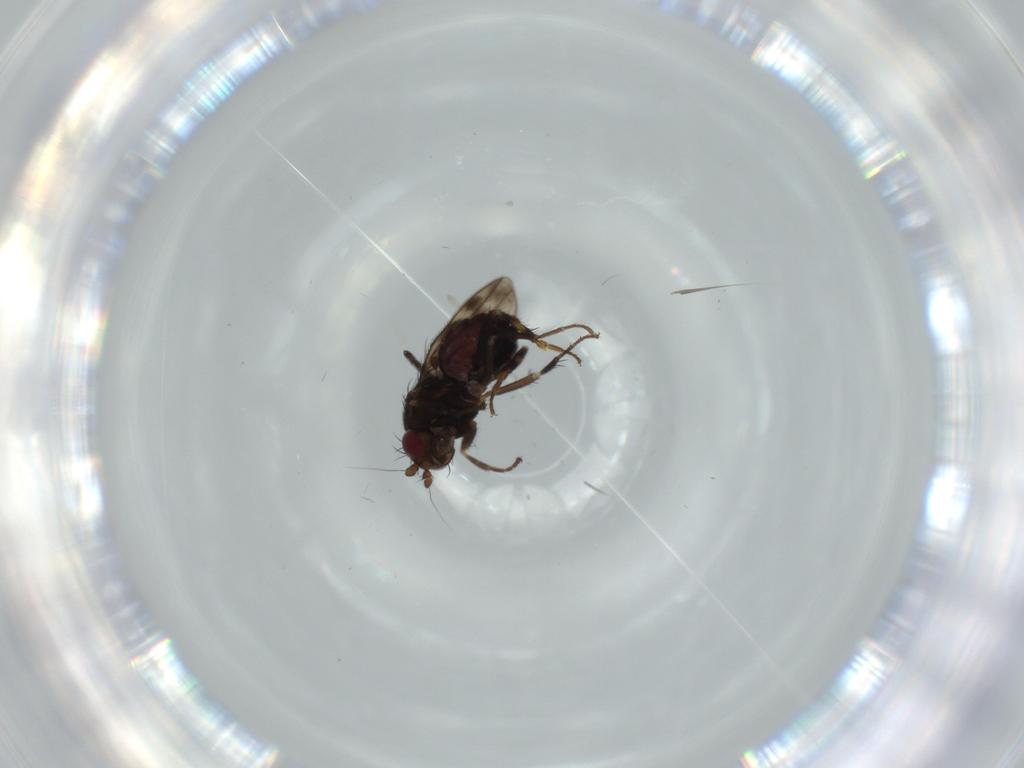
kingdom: Animalia
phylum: Arthropoda
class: Insecta
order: Diptera
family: Sphaeroceridae
